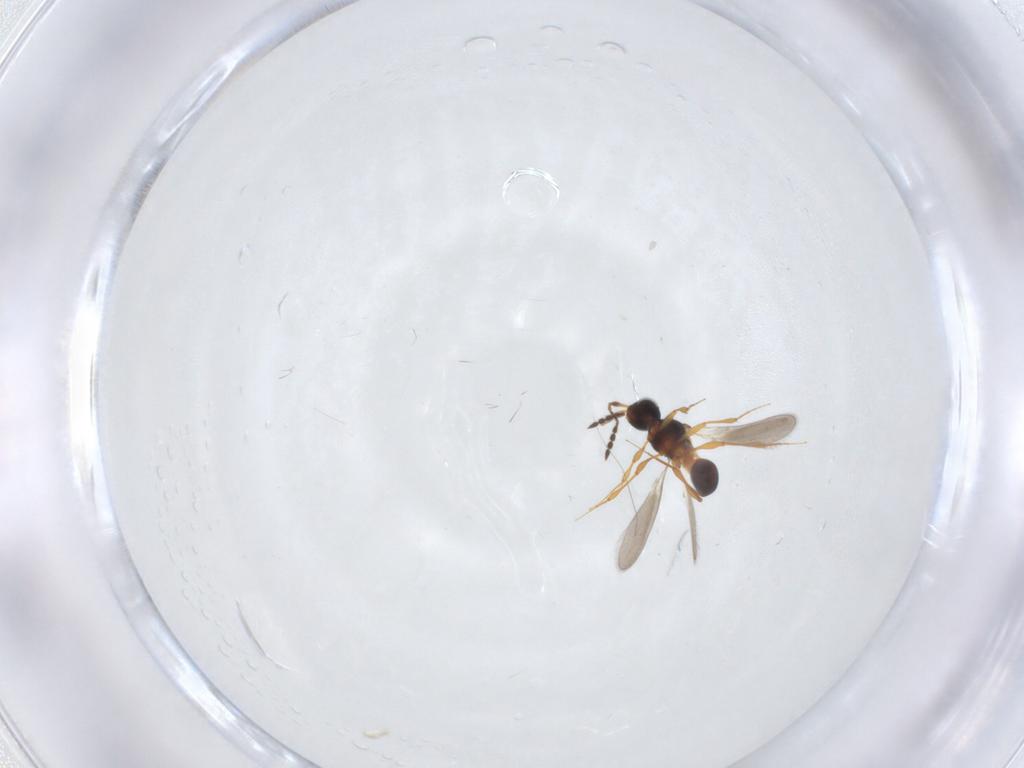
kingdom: Animalia
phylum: Arthropoda
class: Insecta
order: Hymenoptera
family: Platygastridae
